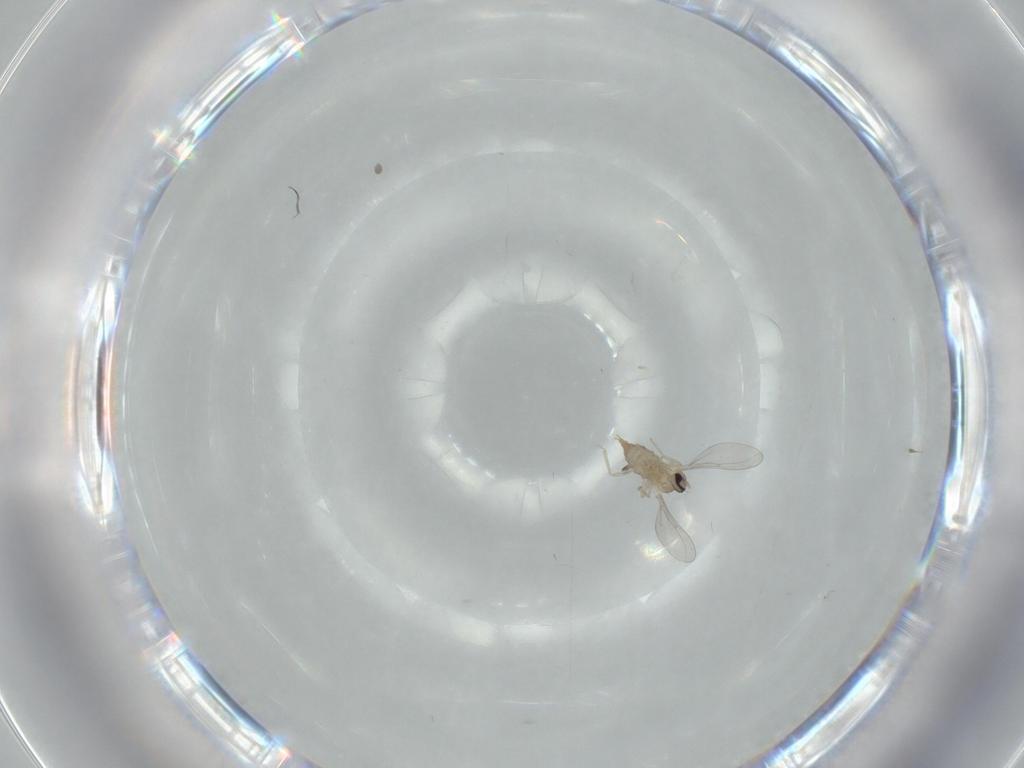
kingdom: Animalia
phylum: Arthropoda
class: Insecta
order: Diptera
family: Cecidomyiidae
